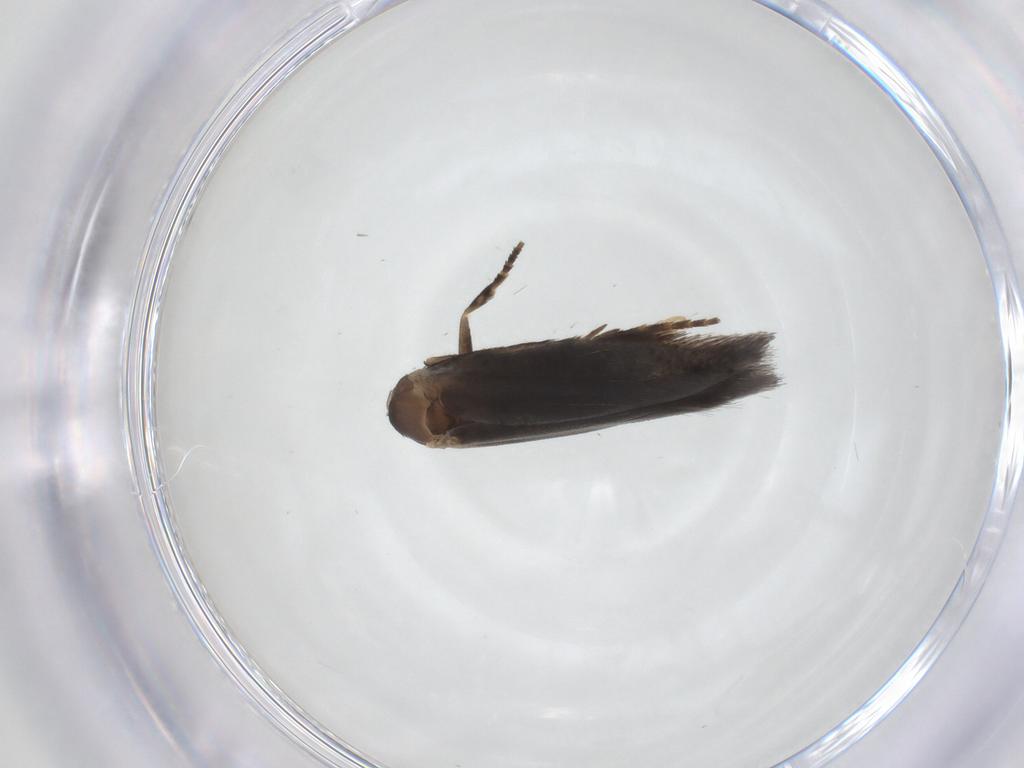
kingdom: Animalia
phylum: Arthropoda
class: Insecta
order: Lepidoptera
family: Elachistidae
